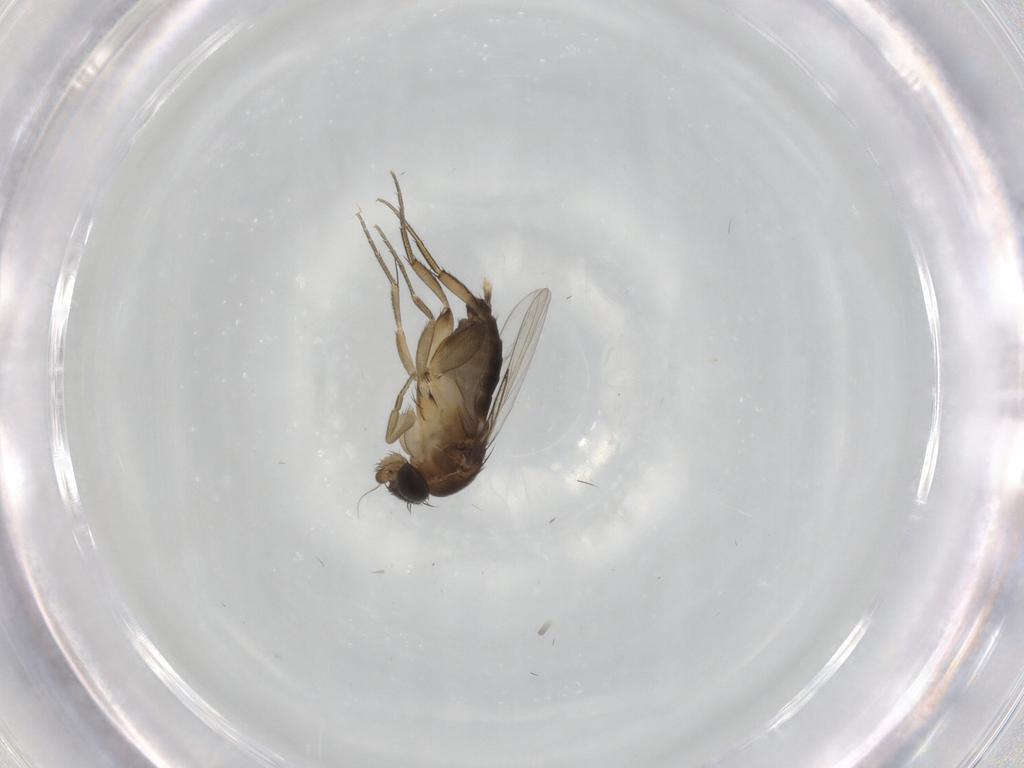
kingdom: Animalia
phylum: Arthropoda
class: Insecta
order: Diptera
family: Phoridae
